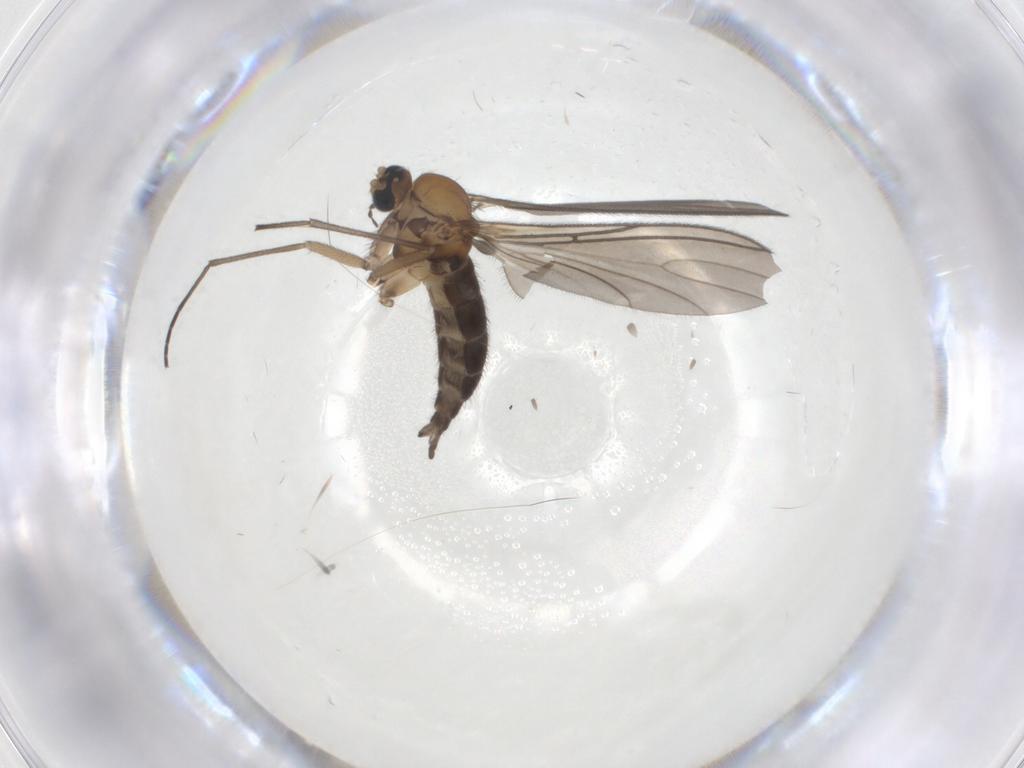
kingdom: Animalia
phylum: Arthropoda
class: Insecta
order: Diptera
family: Sciaridae
